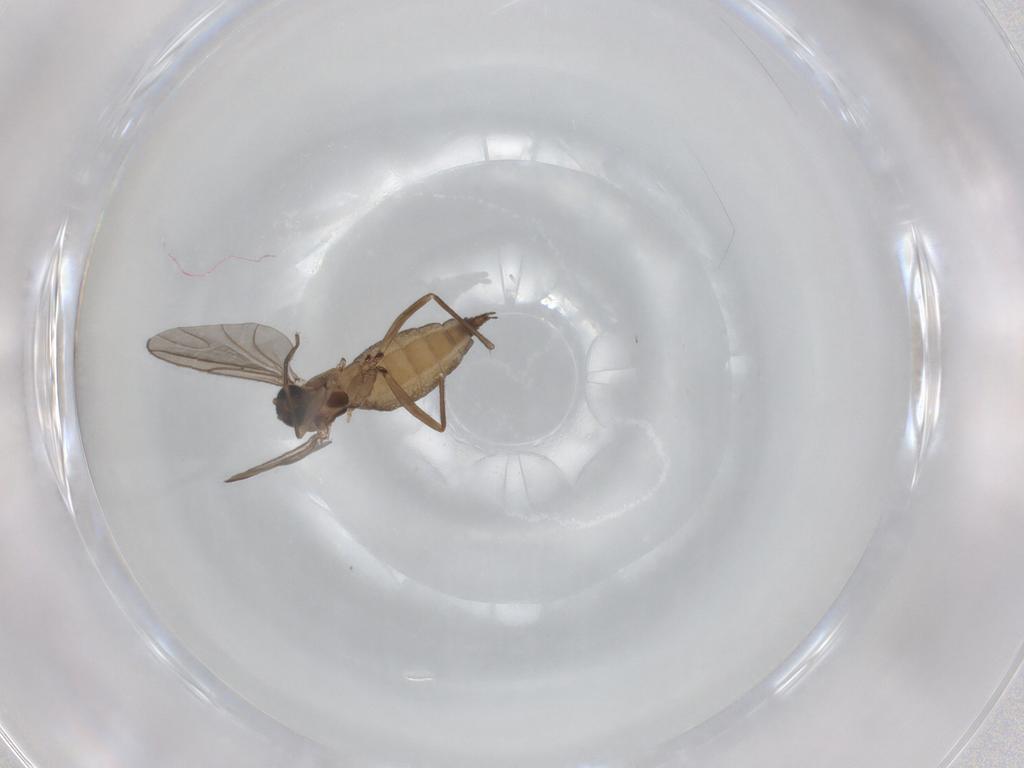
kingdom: Animalia
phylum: Arthropoda
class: Insecta
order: Diptera
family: Sciaridae
